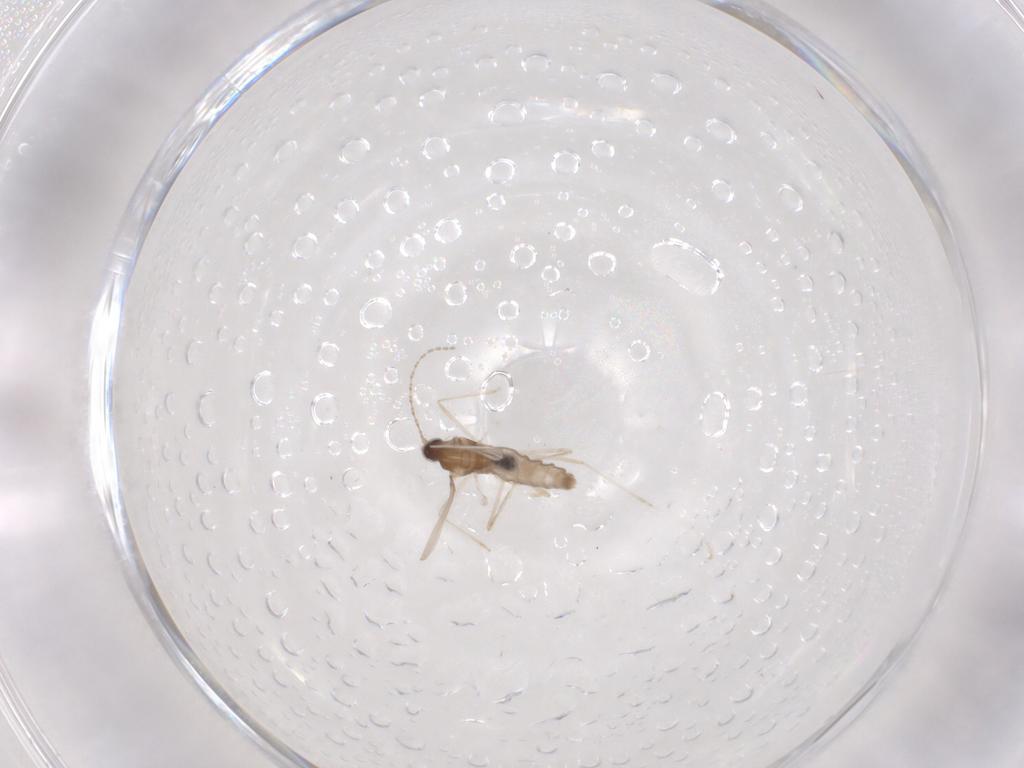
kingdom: Animalia
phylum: Arthropoda
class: Insecta
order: Diptera
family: Cecidomyiidae
